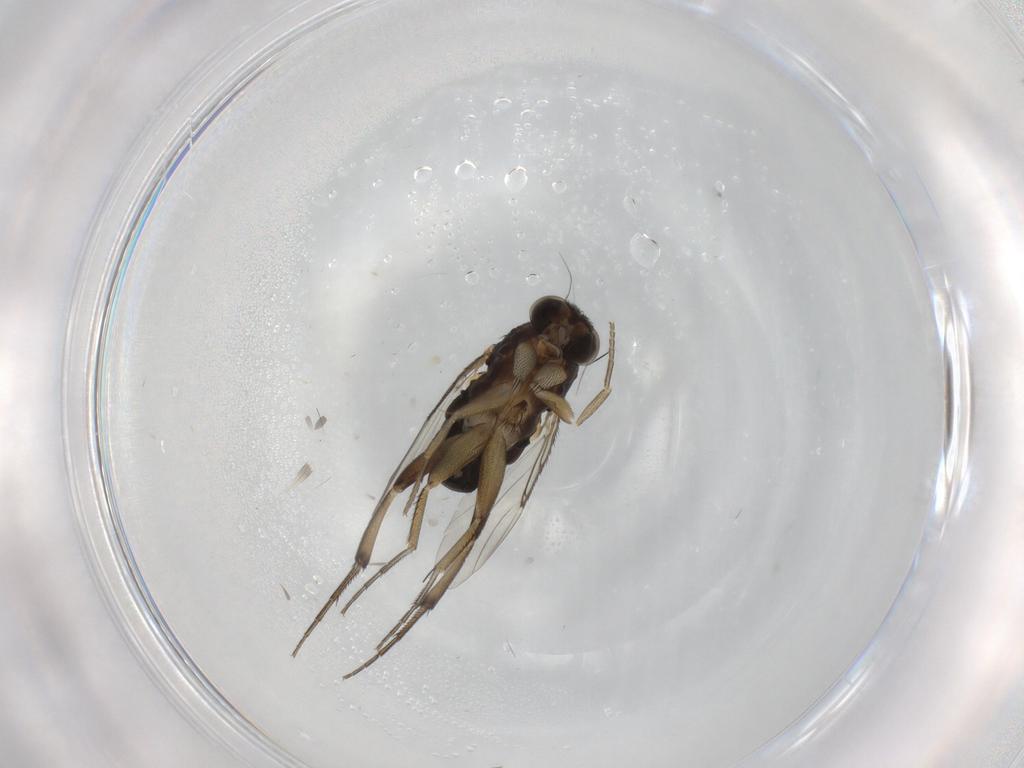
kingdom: Animalia
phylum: Arthropoda
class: Insecta
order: Diptera
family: Phoridae
